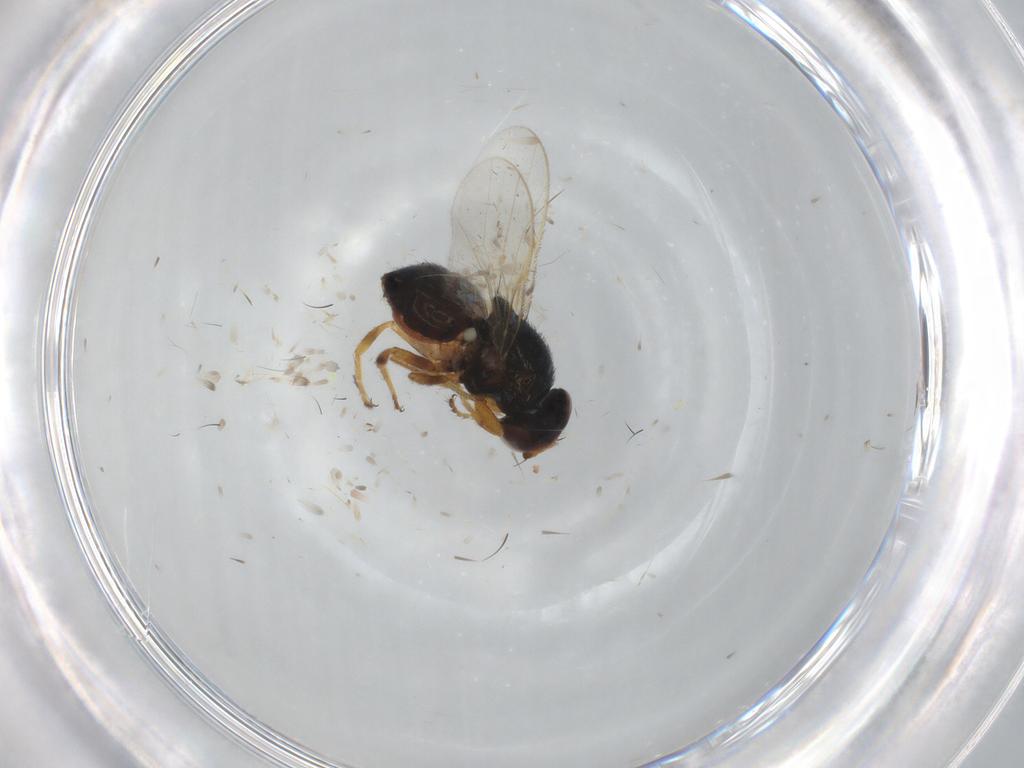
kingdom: Animalia
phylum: Arthropoda
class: Insecta
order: Diptera
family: Chloropidae
